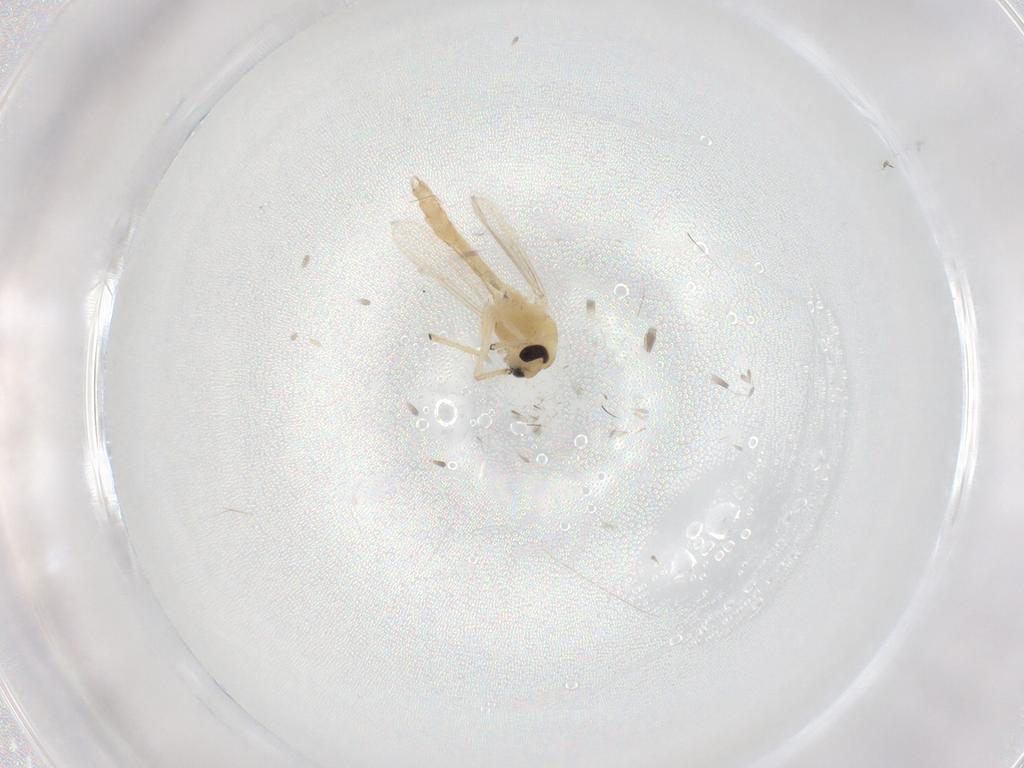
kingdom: Animalia
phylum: Arthropoda
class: Insecta
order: Diptera
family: Chironomidae
